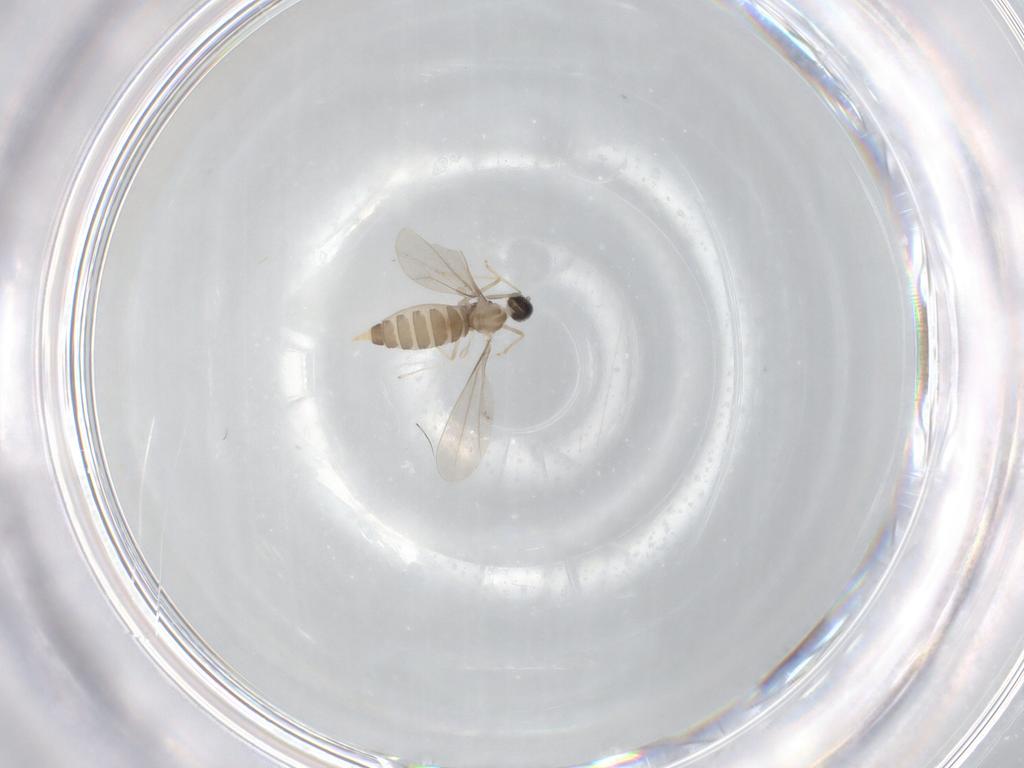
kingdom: Animalia
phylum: Arthropoda
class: Insecta
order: Diptera
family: Cecidomyiidae
